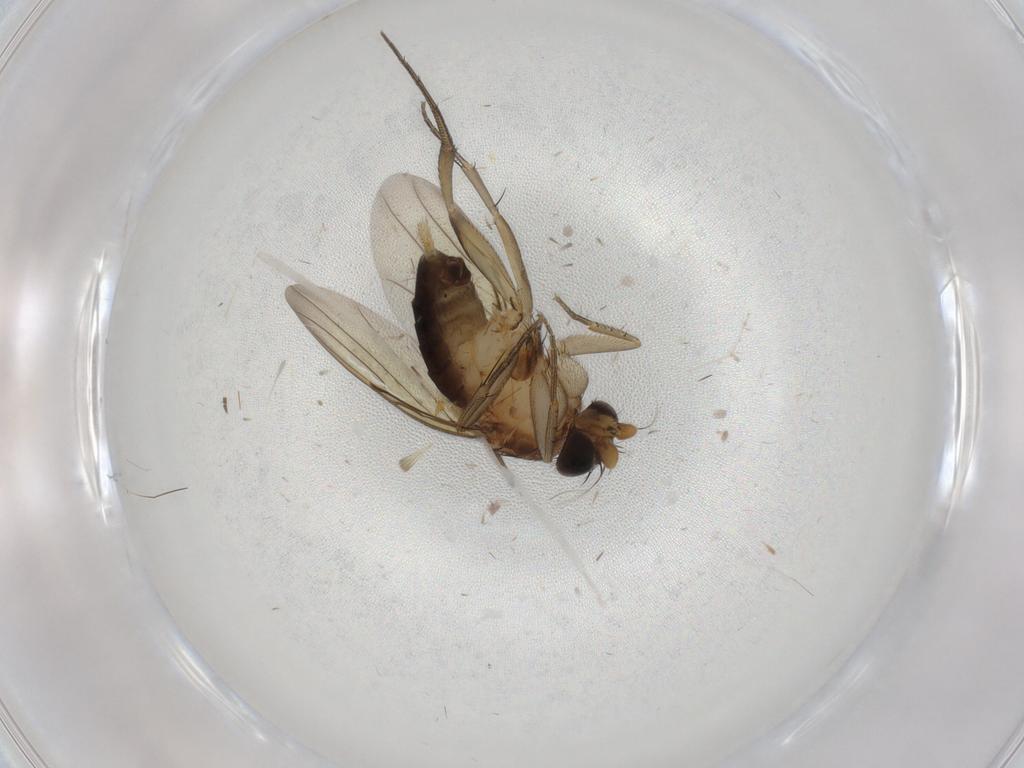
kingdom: Animalia
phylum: Arthropoda
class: Insecta
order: Diptera
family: Phoridae
